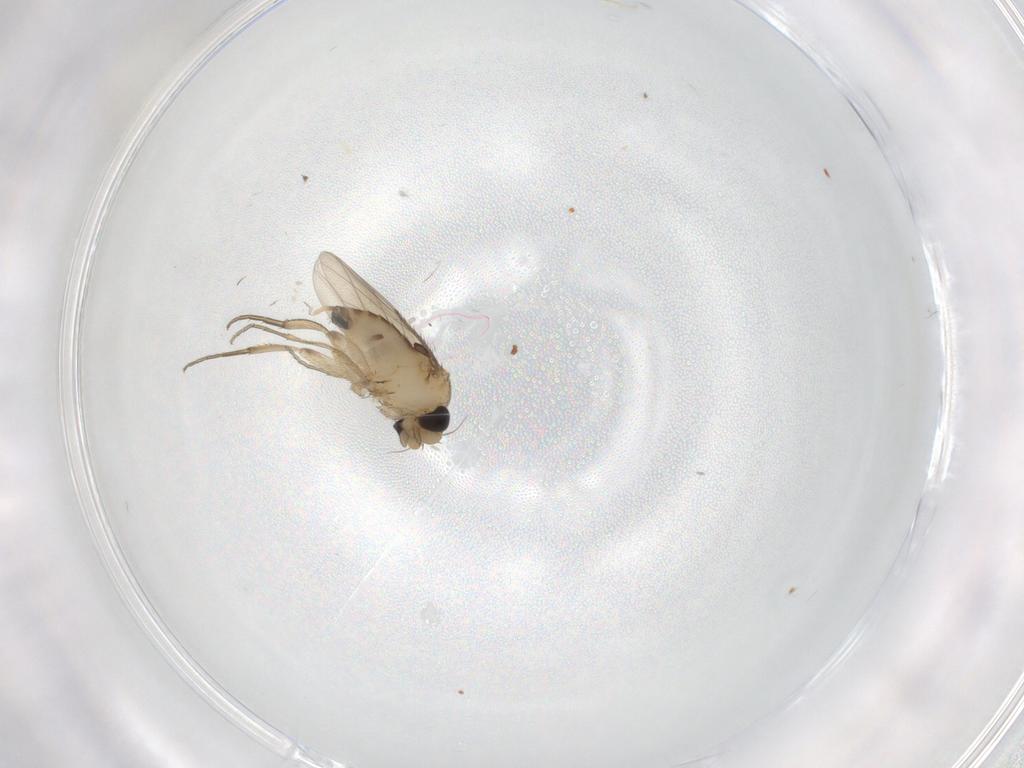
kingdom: Animalia
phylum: Arthropoda
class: Insecta
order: Diptera
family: Phoridae
